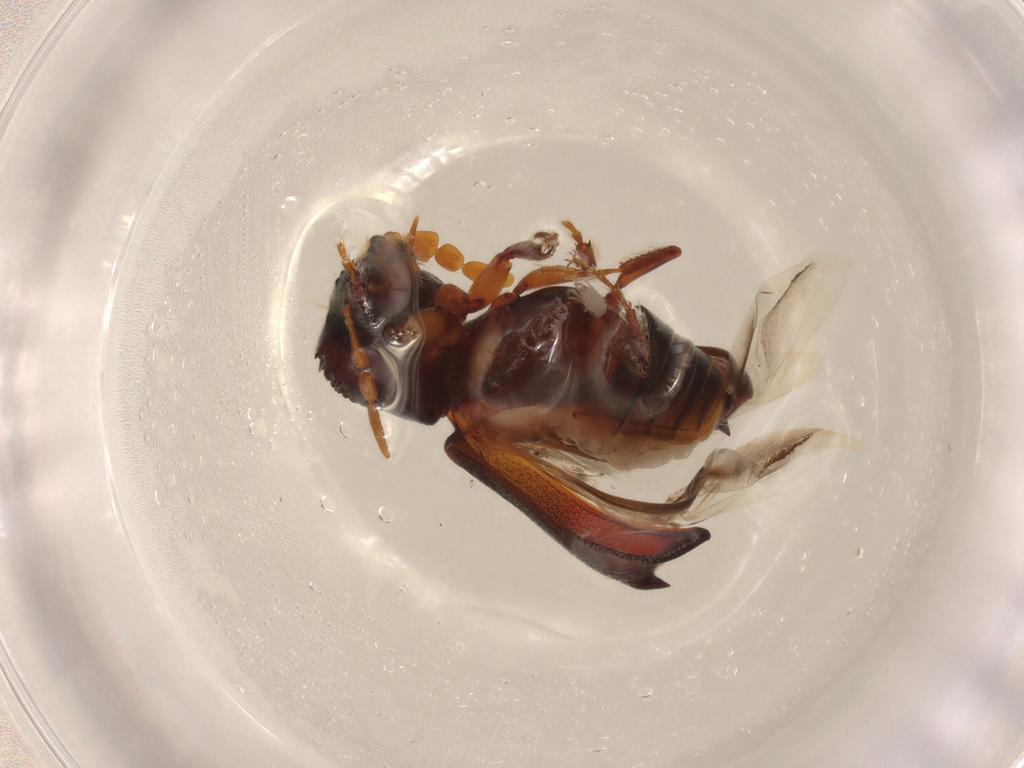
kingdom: Animalia
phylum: Arthropoda
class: Insecta
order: Coleoptera
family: Bostrichidae
